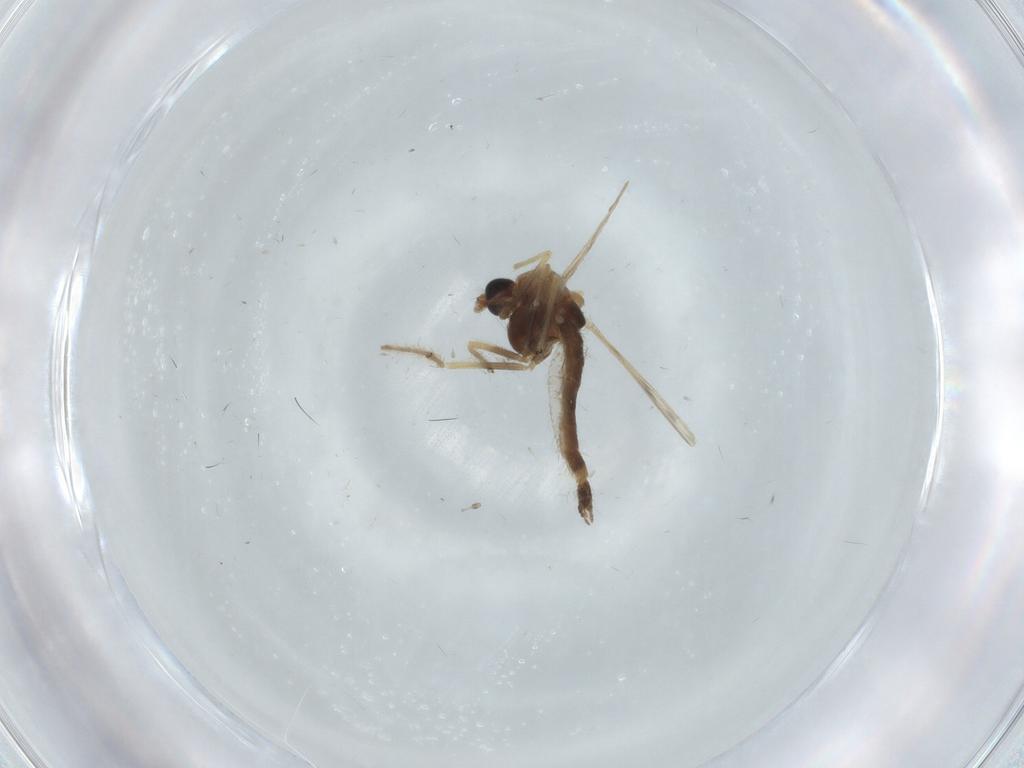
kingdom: Animalia
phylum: Arthropoda
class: Insecta
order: Diptera
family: Chironomidae
